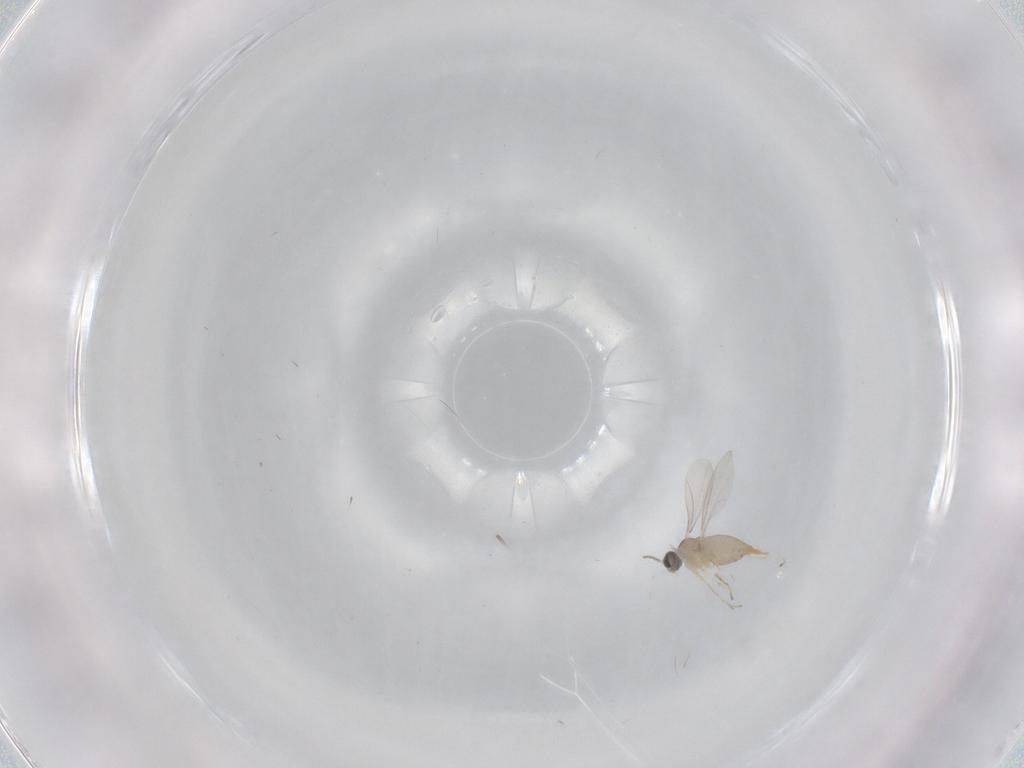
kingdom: Animalia
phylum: Arthropoda
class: Insecta
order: Diptera
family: Cecidomyiidae
